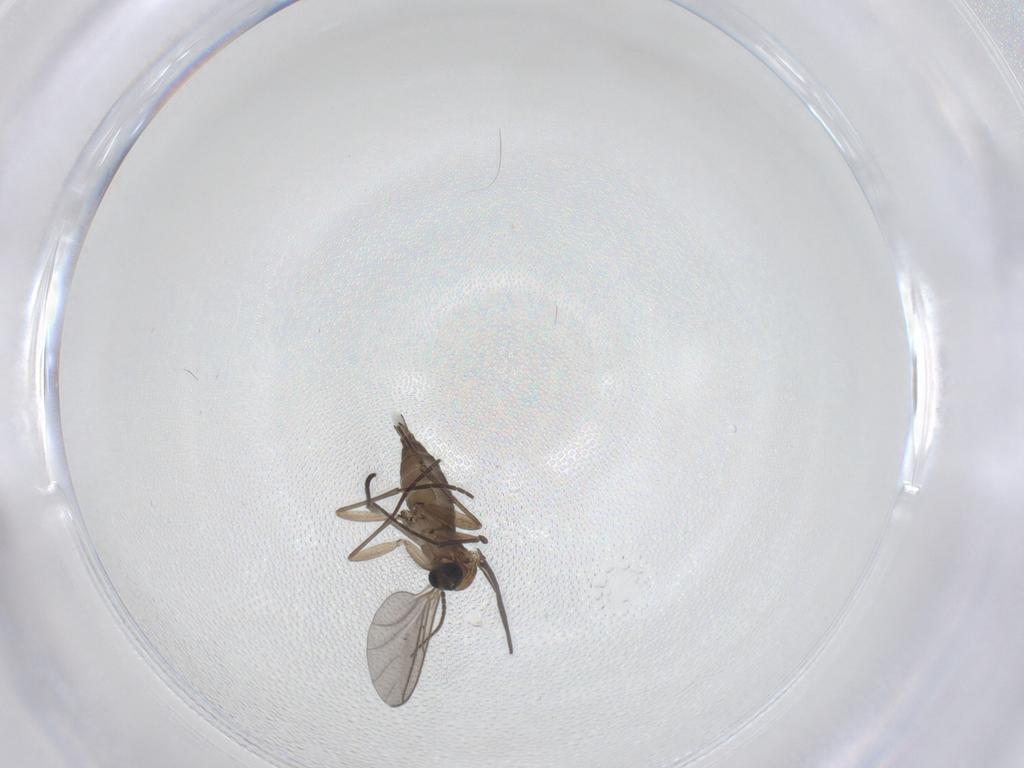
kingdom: Animalia
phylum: Arthropoda
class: Insecta
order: Diptera
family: Sciaridae
